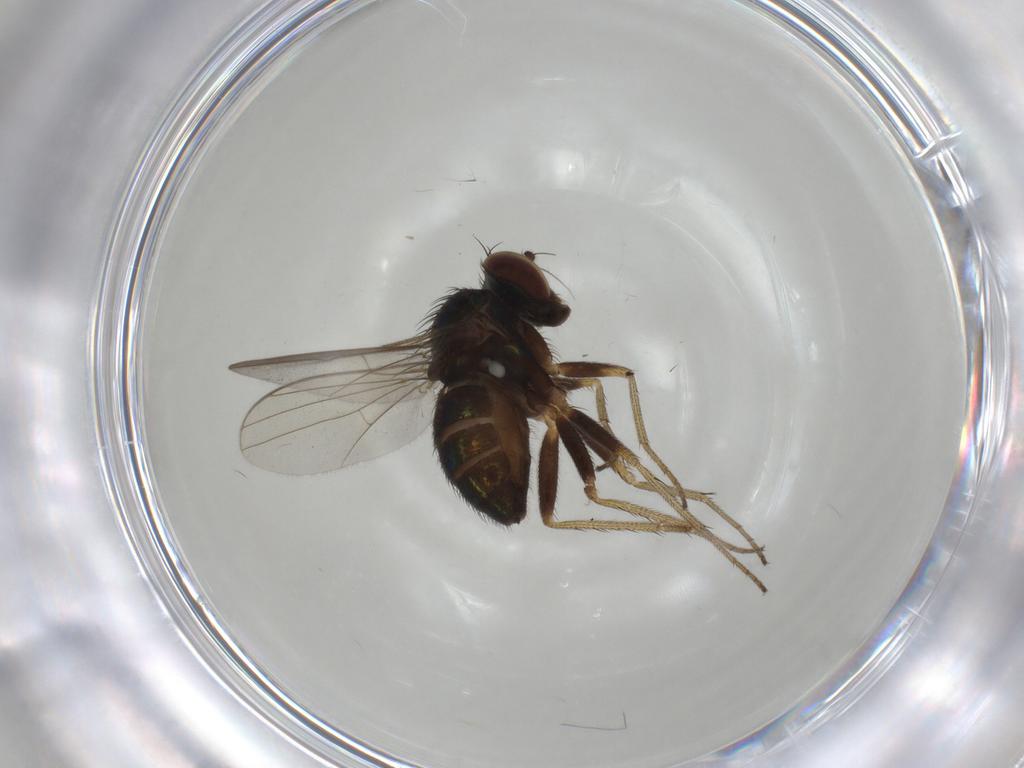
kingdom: Animalia
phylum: Arthropoda
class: Insecta
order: Diptera
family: Dolichopodidae
